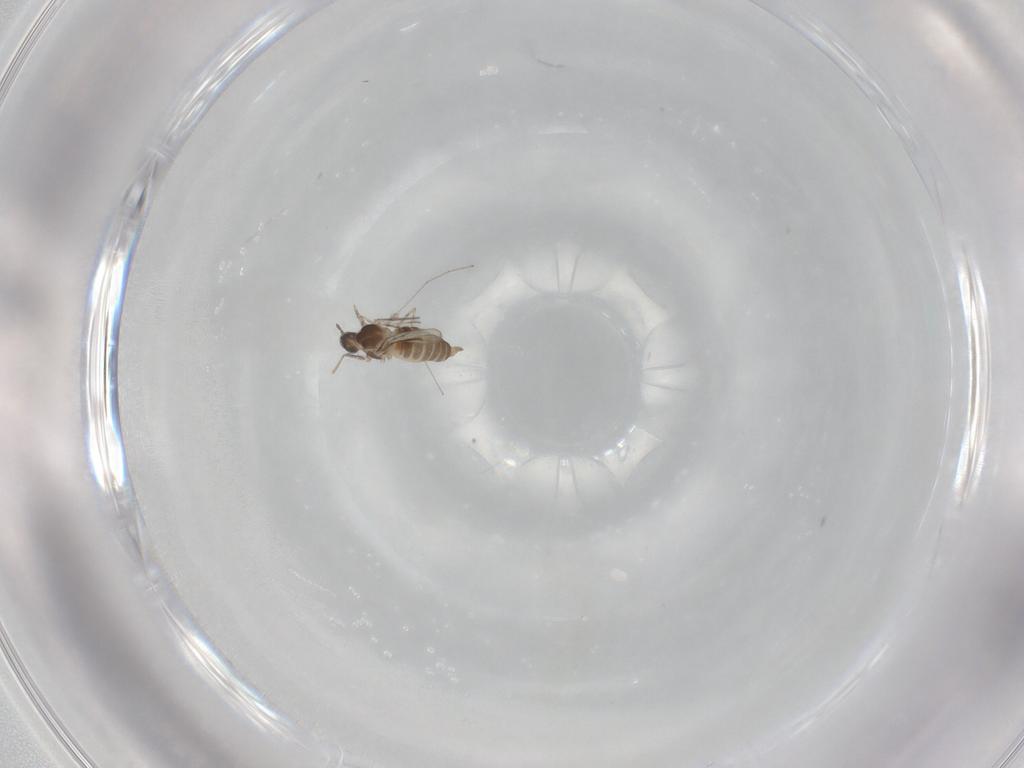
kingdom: Animalia
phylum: Arthropoda
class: Insecta
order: Diptera
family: Cecidomyiidae
